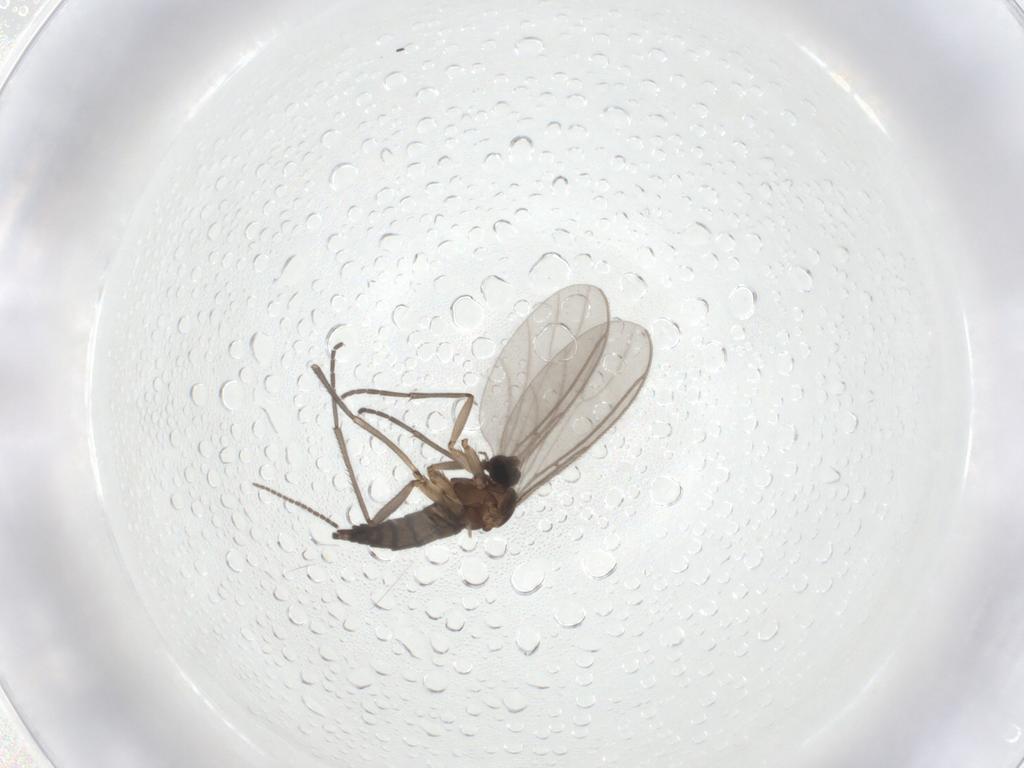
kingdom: Animalia
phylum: Arthropoda
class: Insecta
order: Diptera
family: Sciaridae
